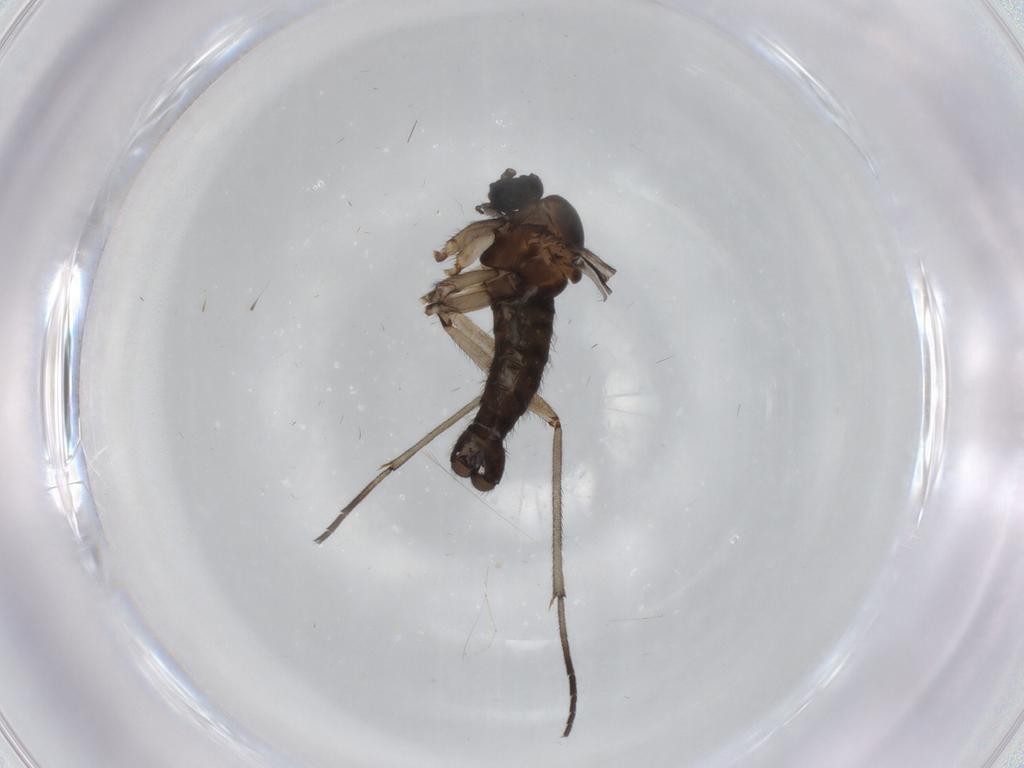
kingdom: Animalia
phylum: Arthropoda
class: Insecta
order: Diptera
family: Sciaridae
